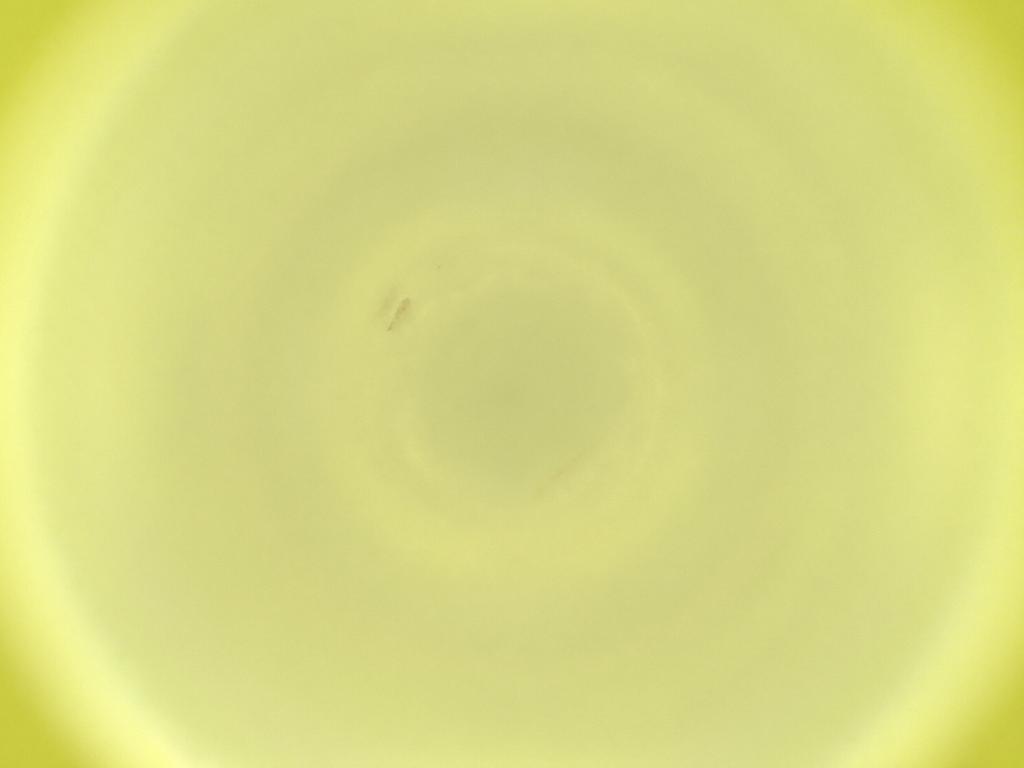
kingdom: Animalia
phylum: Arthropoda
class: Insecta
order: Diptera
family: Cecidomyiidae
